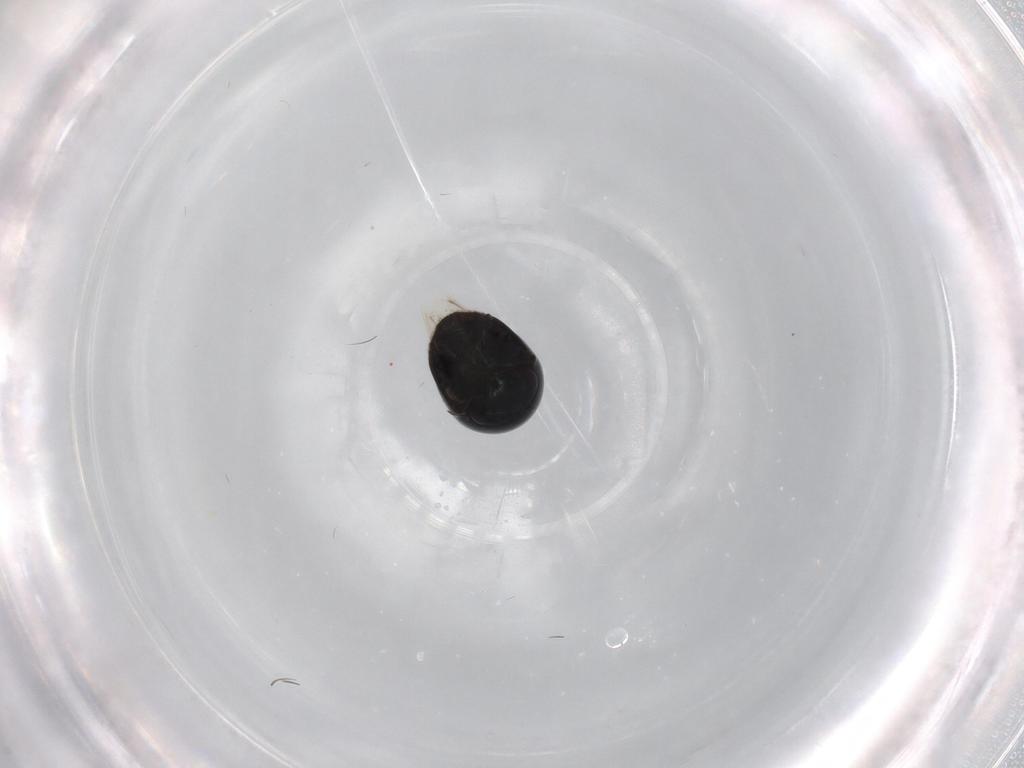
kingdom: Animalia
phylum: Arthropoda
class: Insecta
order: Coleoptera
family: Cybocephalidae
